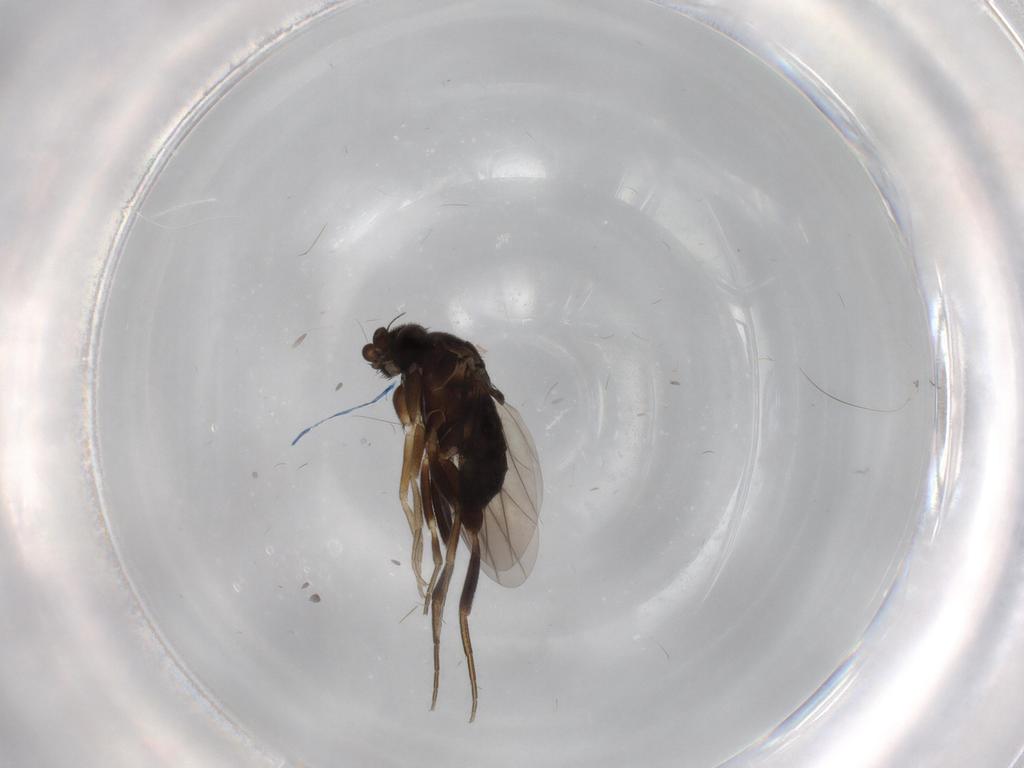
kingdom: Animalia
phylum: Arthropoda
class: Insecta
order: Diptera
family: Phoridae
